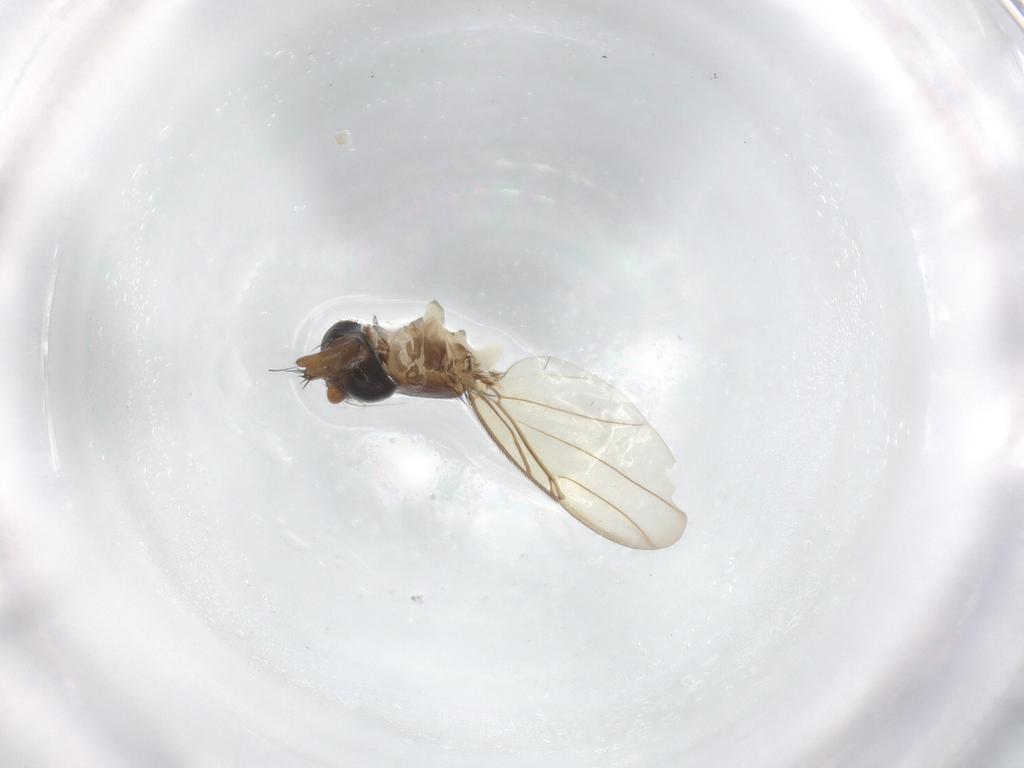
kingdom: Animalia
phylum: Arthropoda
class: Insecta
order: Diptera
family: Phoridae
